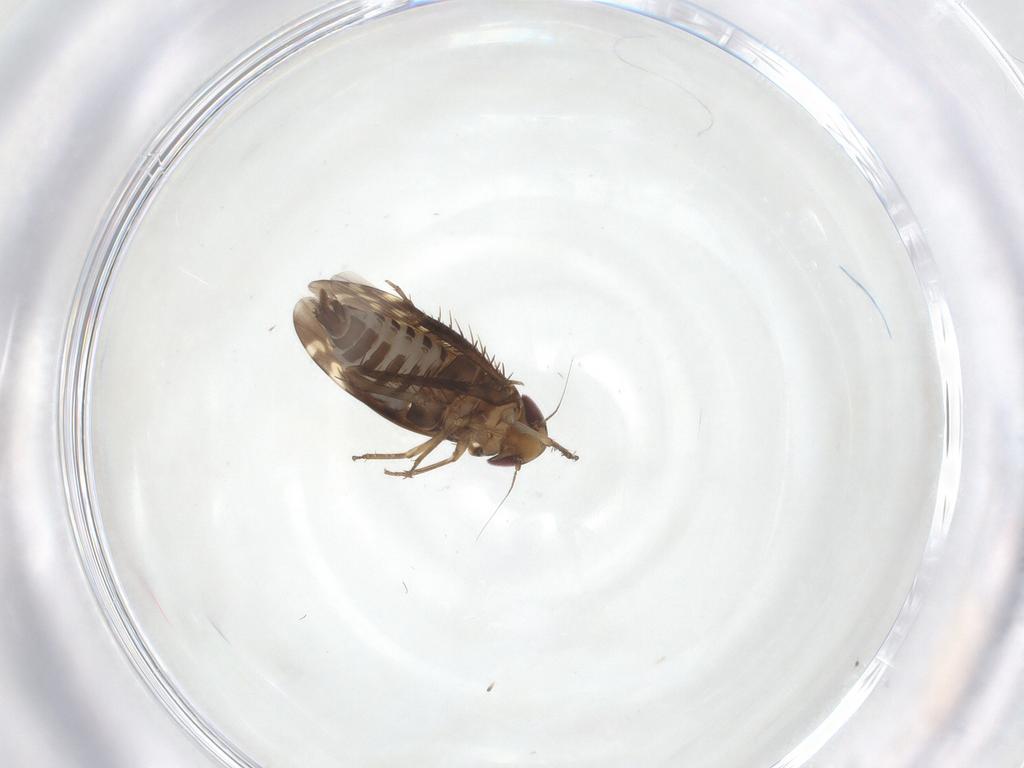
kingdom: Animalia
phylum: Arthropoda
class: Insecta
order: Hemiptera
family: Cicadellidae
